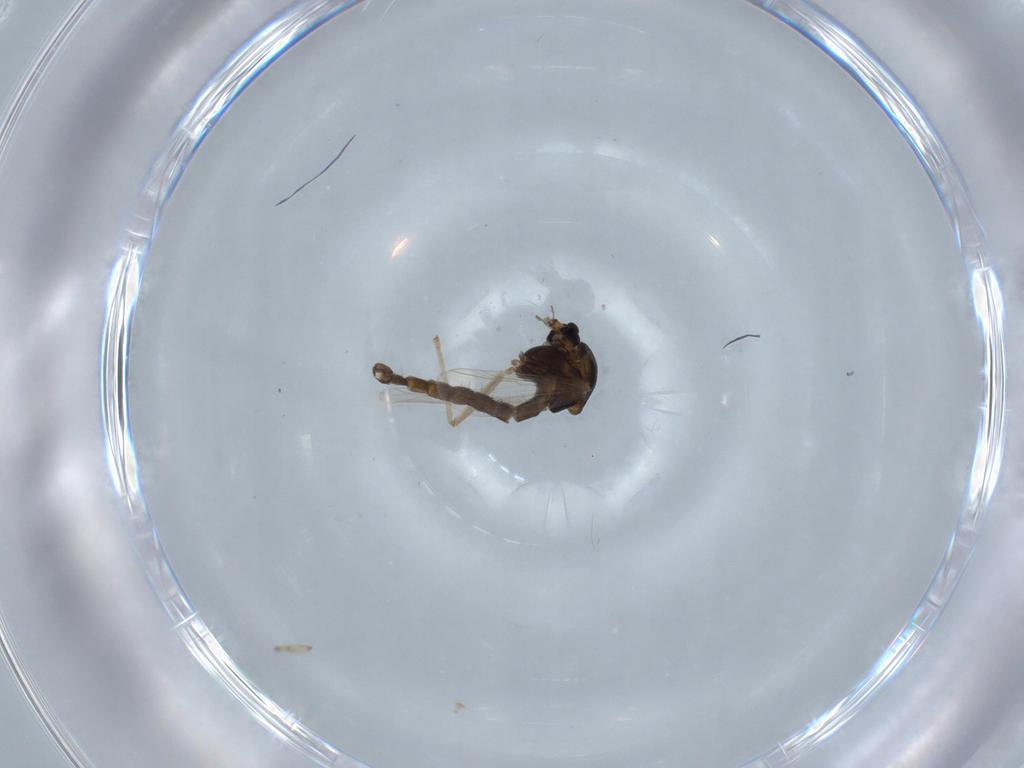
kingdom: Animalia
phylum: Arthropoda
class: Insecta
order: Diptera
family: Chironomidae
